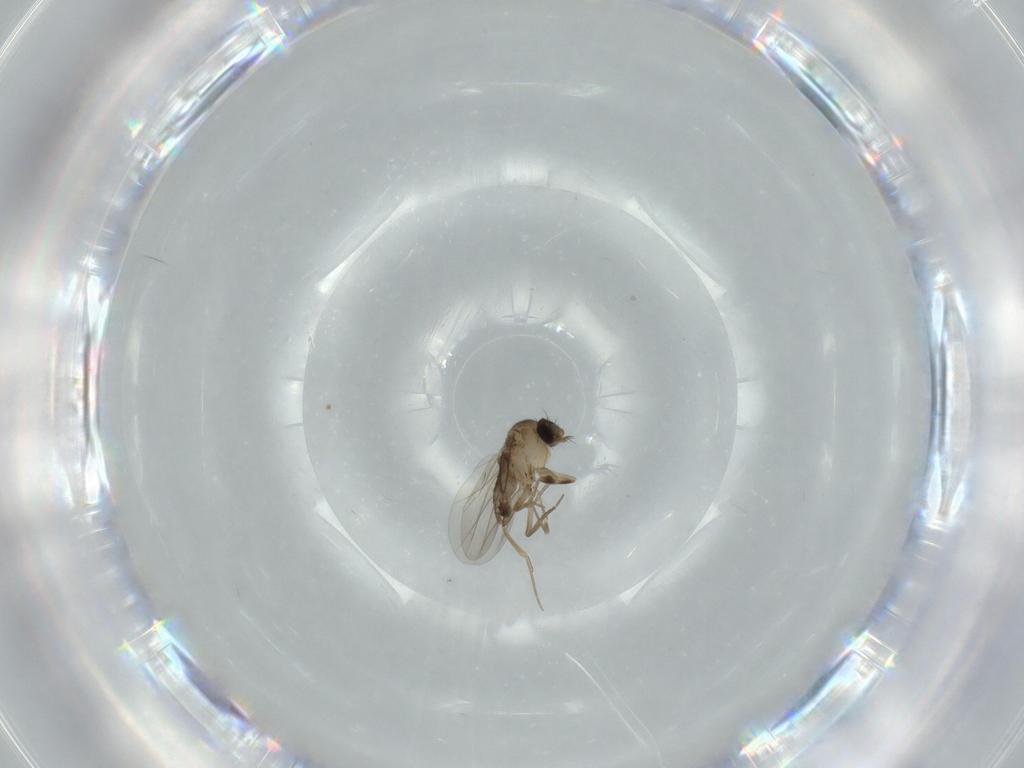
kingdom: Animalia
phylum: Arthropoda
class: Insecta
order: Diptera
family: Phoridae
